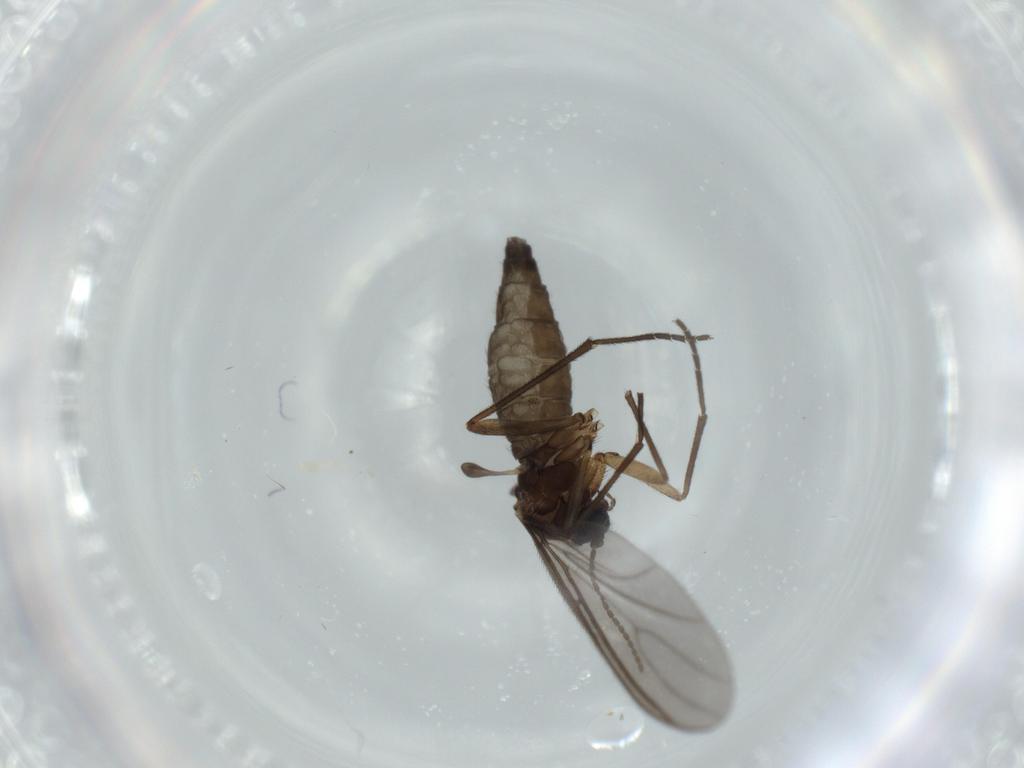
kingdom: Animalia
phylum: Arthropoda
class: Insecta
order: Diptera
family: Sciaridae
